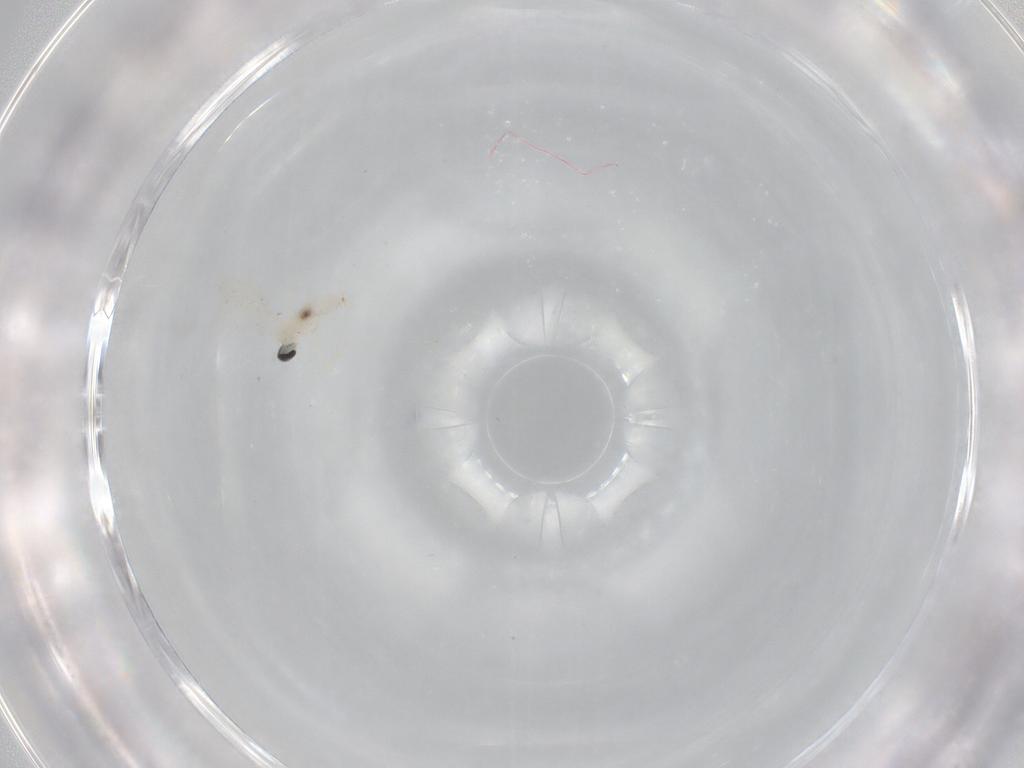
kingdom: Animalia
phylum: Arthropoda
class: Insecta
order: Diptera
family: Cecidomyiidae
